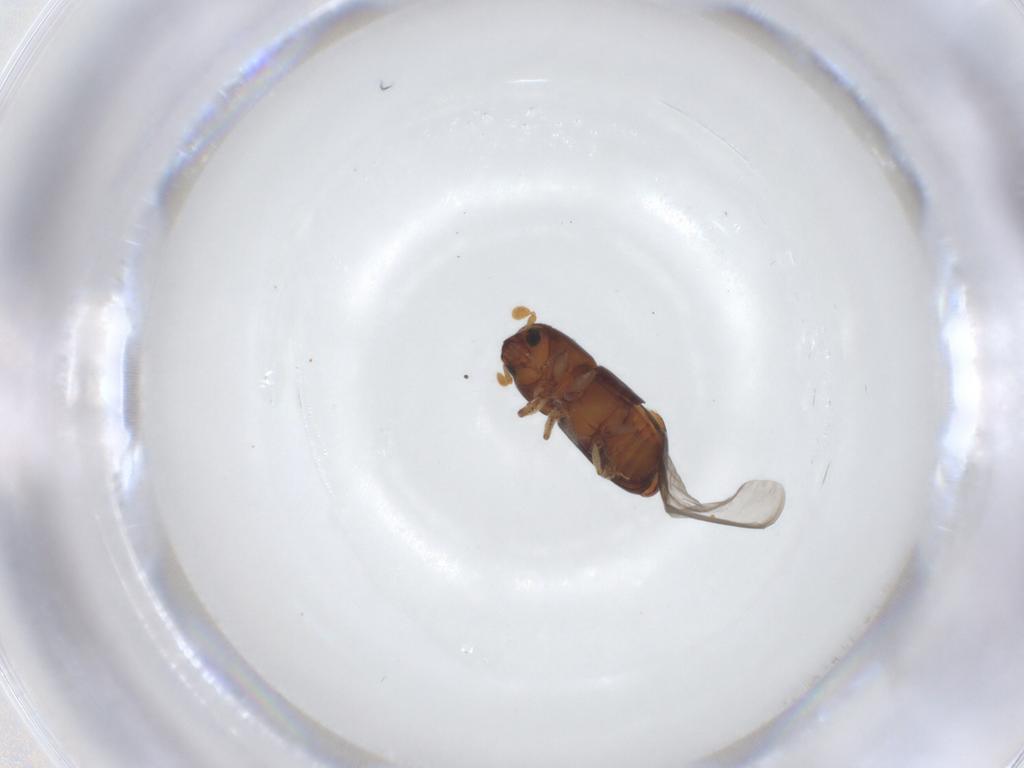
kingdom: Animalia
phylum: Arthropoda
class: Insecta
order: Coleoptera
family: Curculionidae
